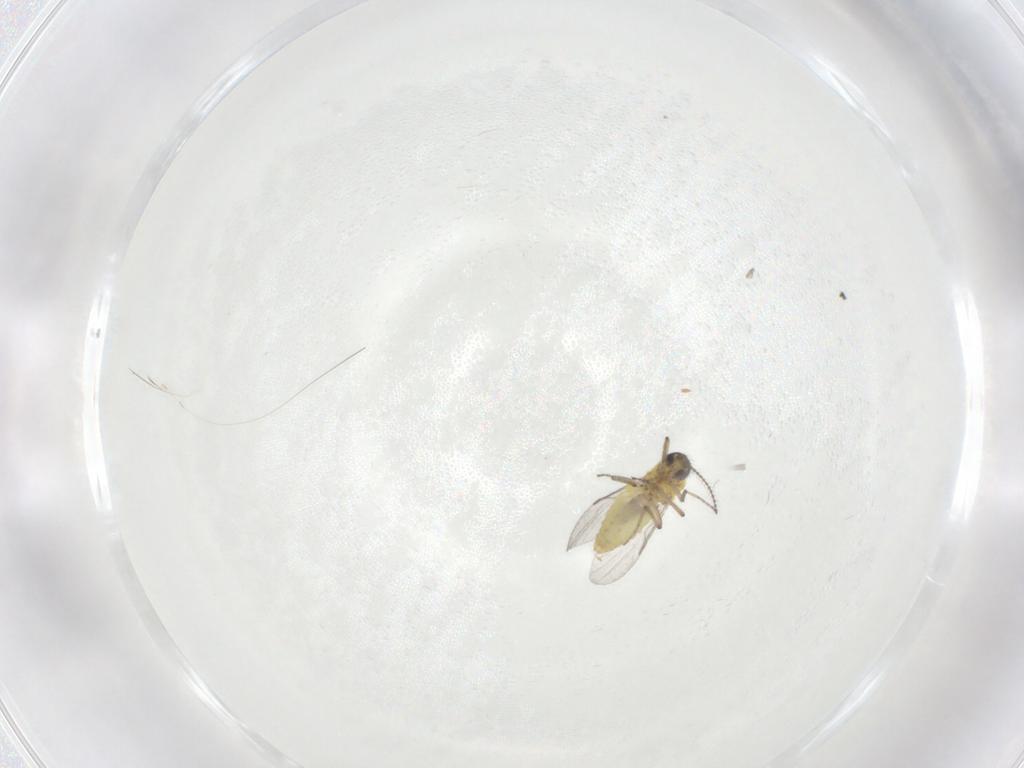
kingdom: Animalia
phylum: Arthropoda
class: Insecta
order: Diptera
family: Ceratopogonidae
